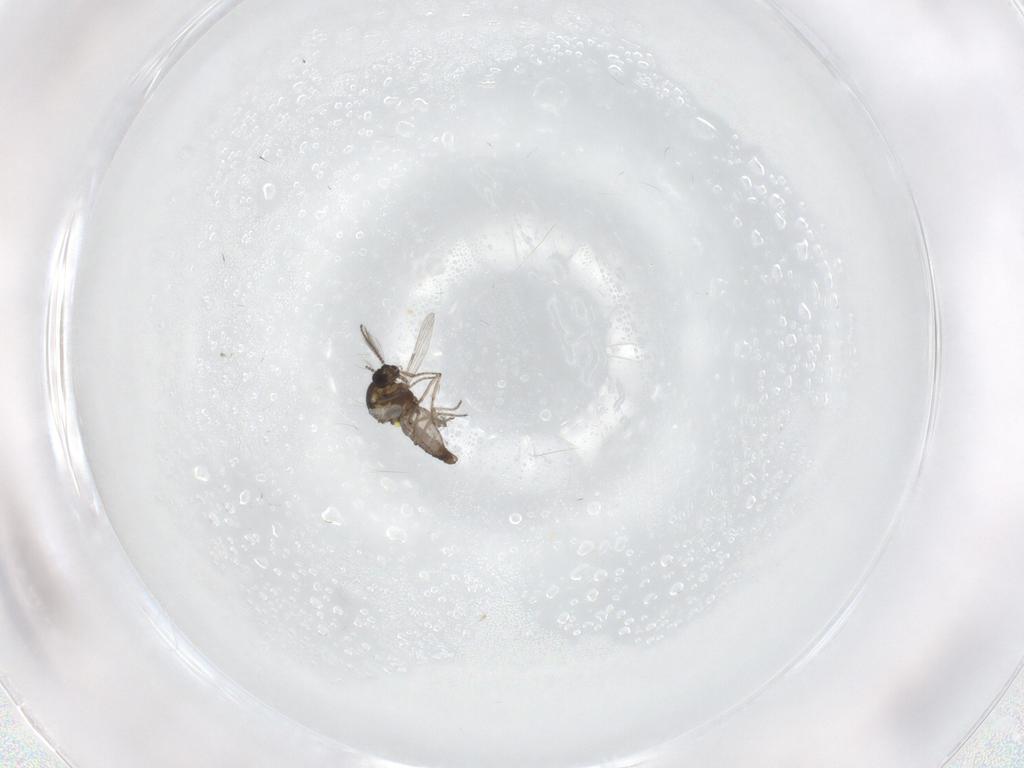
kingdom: Animalia
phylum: Arthropoda
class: Insecta
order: Diptera
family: Ceratopogonidae
